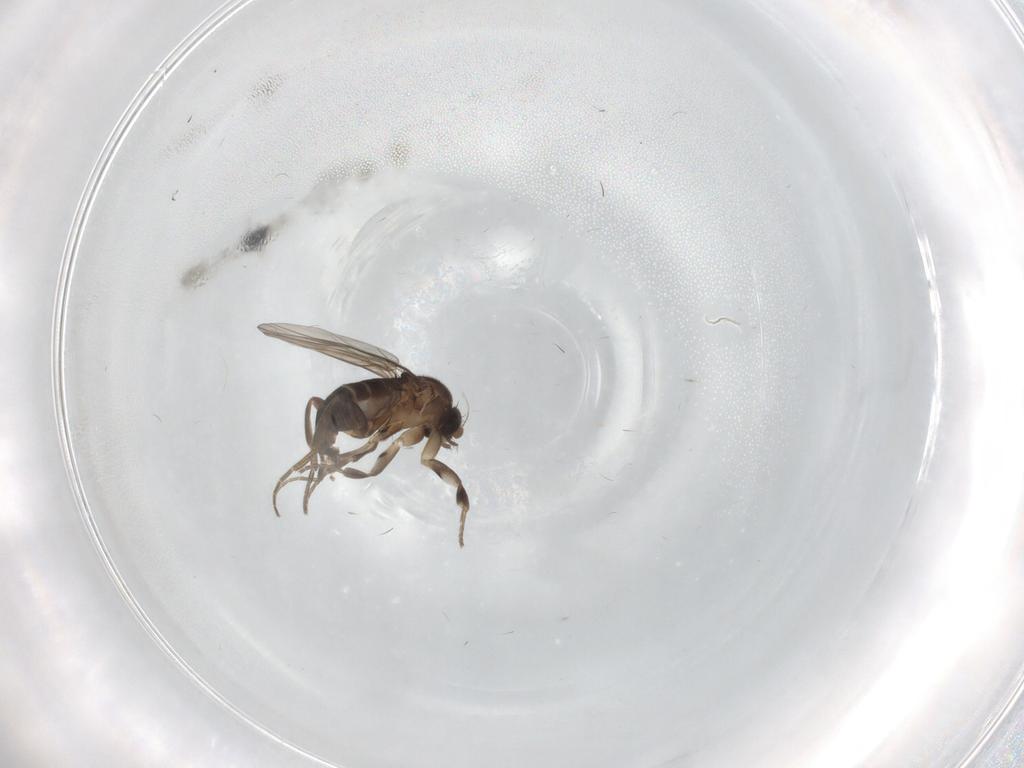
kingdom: Animalia
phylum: Arthropoda
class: Insecta
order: Diptera
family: Phoridae
